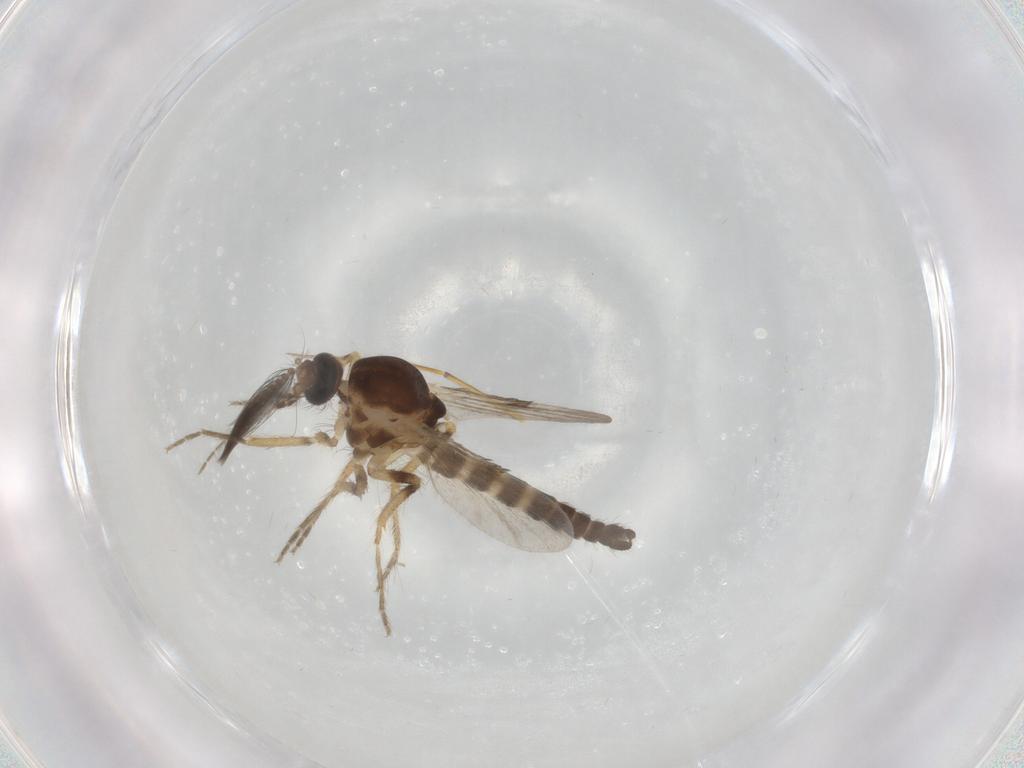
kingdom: Animalia
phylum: Arthropoda
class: Insecta
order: Diptera
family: Ceratopogonidae
